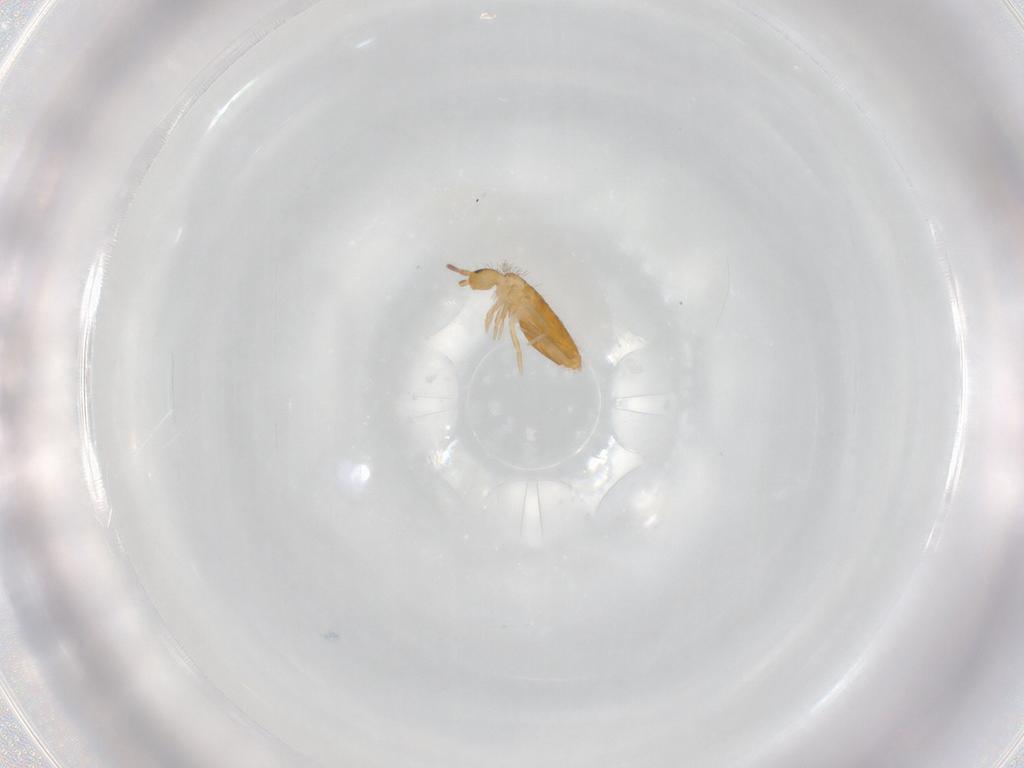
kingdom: Animalia
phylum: Arthropoda
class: Collembola
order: Entomobryomorpha
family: Entomobryidae
